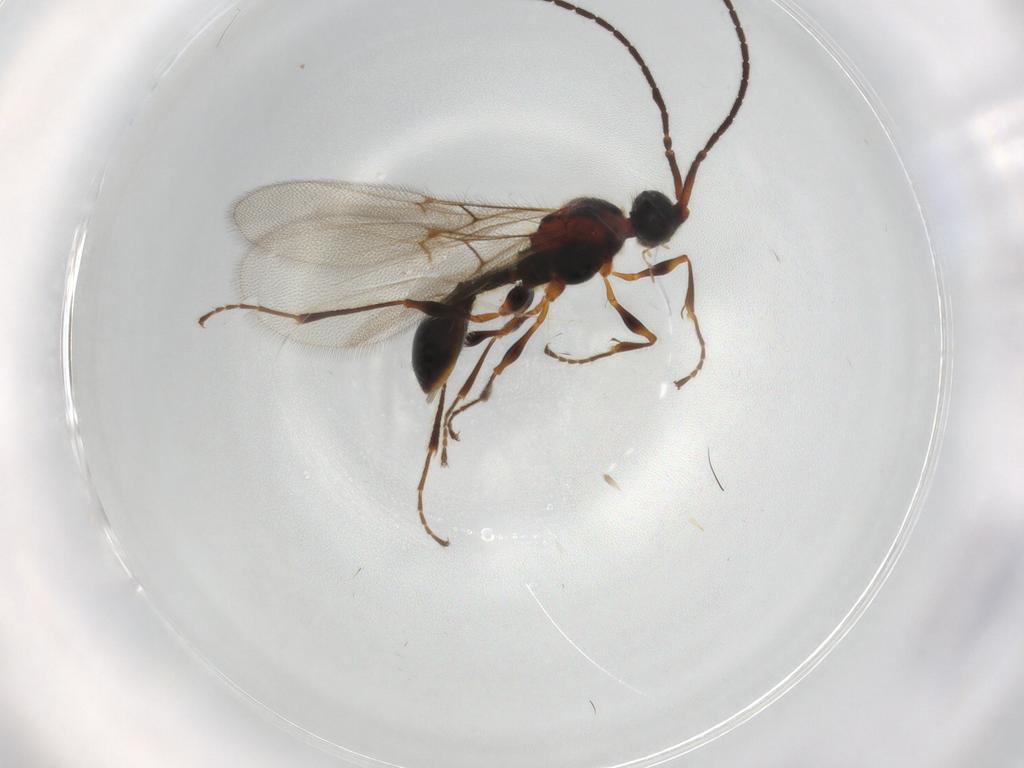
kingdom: Animalia
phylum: Arthropoda
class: Insecta
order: Hymenoptera
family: Diapriidae
